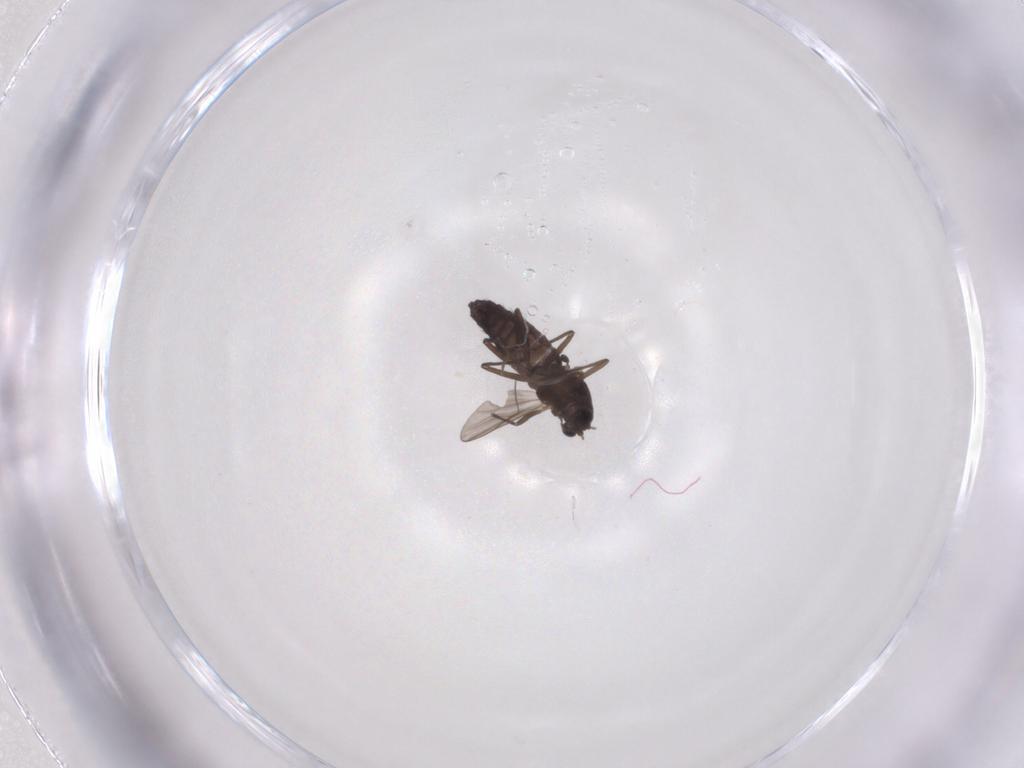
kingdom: Animalia
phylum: Arthropoda
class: Insecta
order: Diptera
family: Chironomidae
